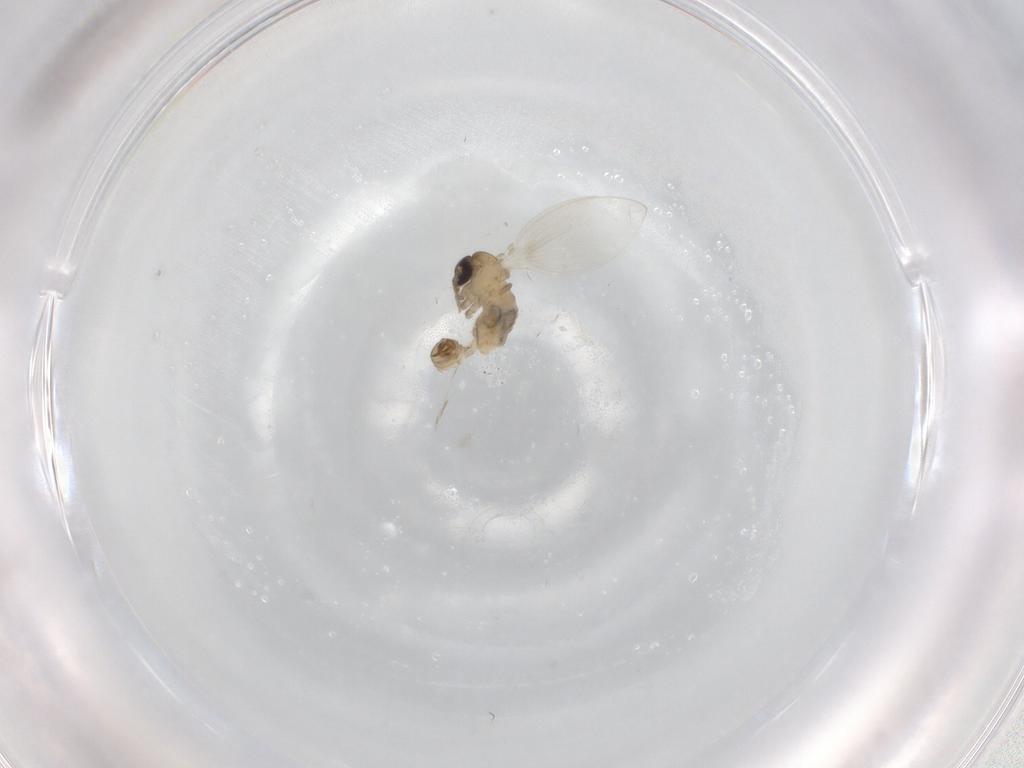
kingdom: Animalia
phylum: Arthropoda
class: Insecta
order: Diptera
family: Psychodidae
